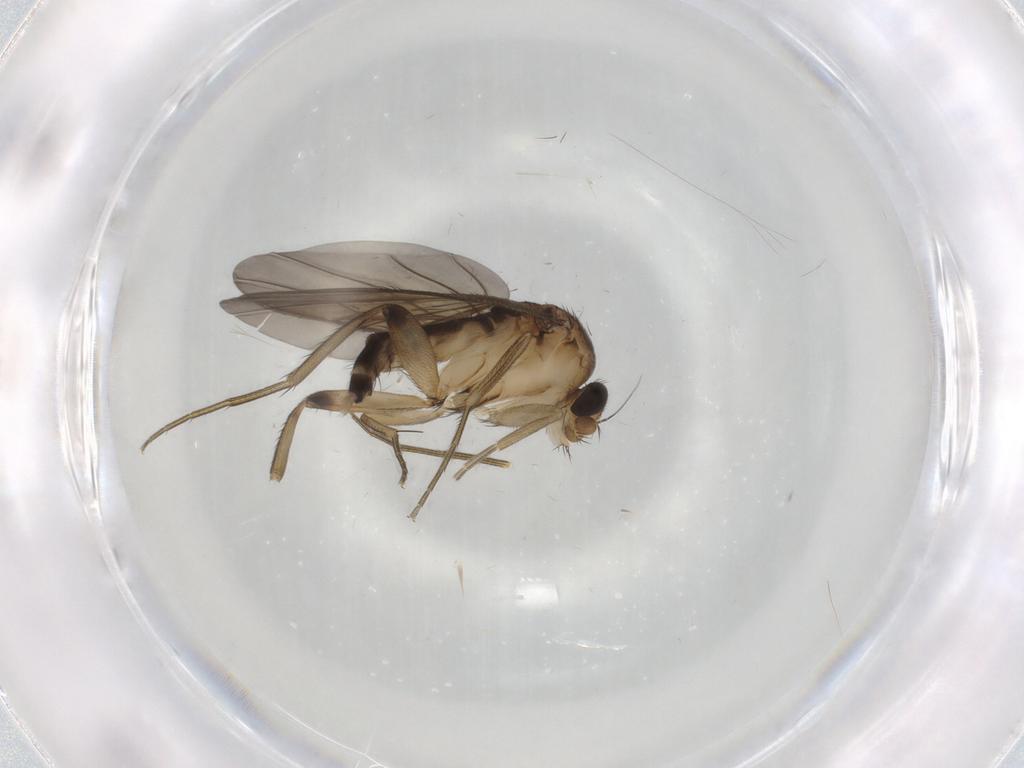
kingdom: Animalia
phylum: Arthropoda
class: Insecta
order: Diptera
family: Phoridae
